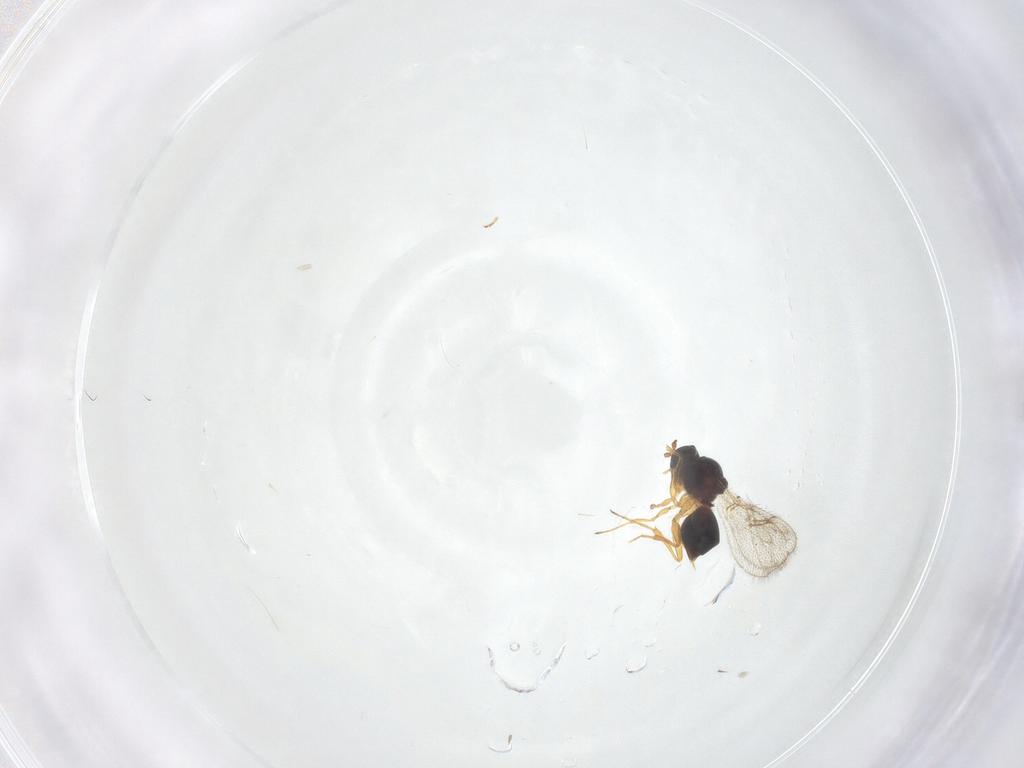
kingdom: Animalia
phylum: Arthropoda
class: Insecta
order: Hymenoptera
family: Figitidae
